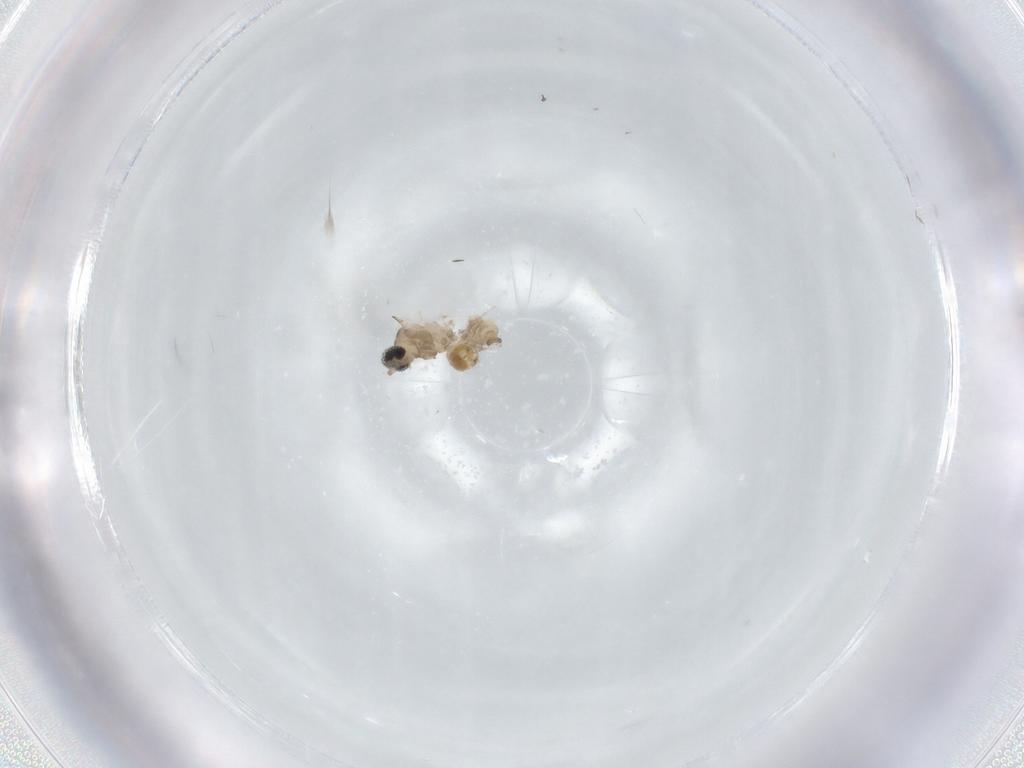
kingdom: Animalia
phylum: Arthropoda
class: Insecta
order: Diptera
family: Cecidomyiidae
